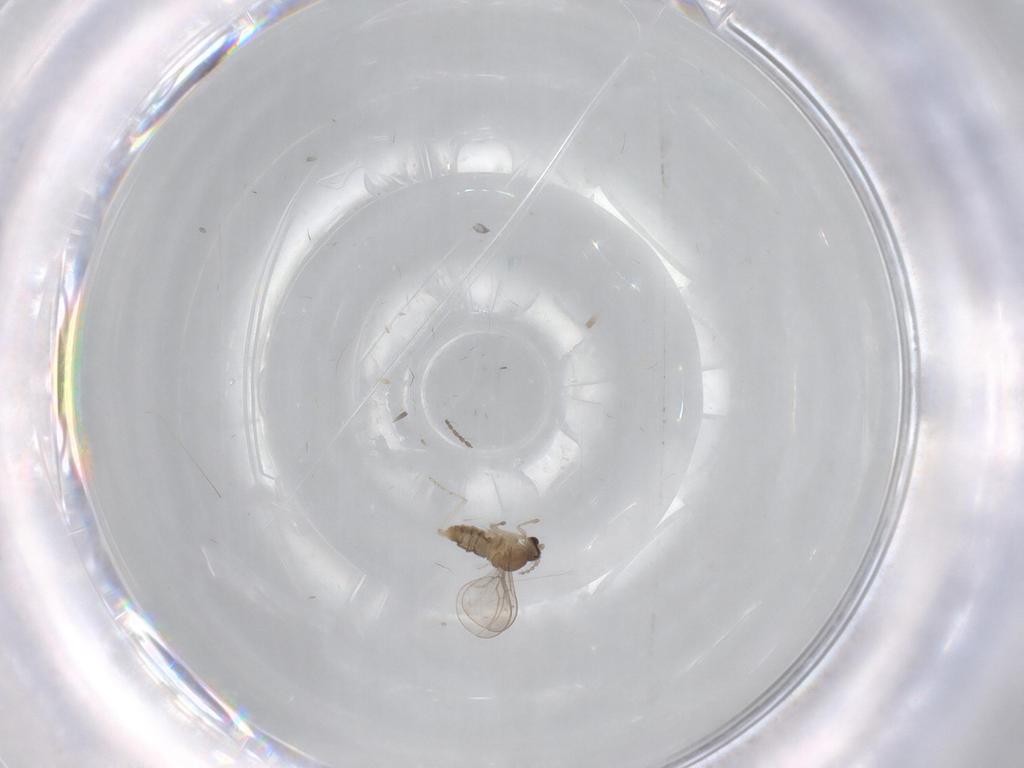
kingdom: Animalia
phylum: Arthropoda
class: Insecta
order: Diptera
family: Cecidomyiidae
